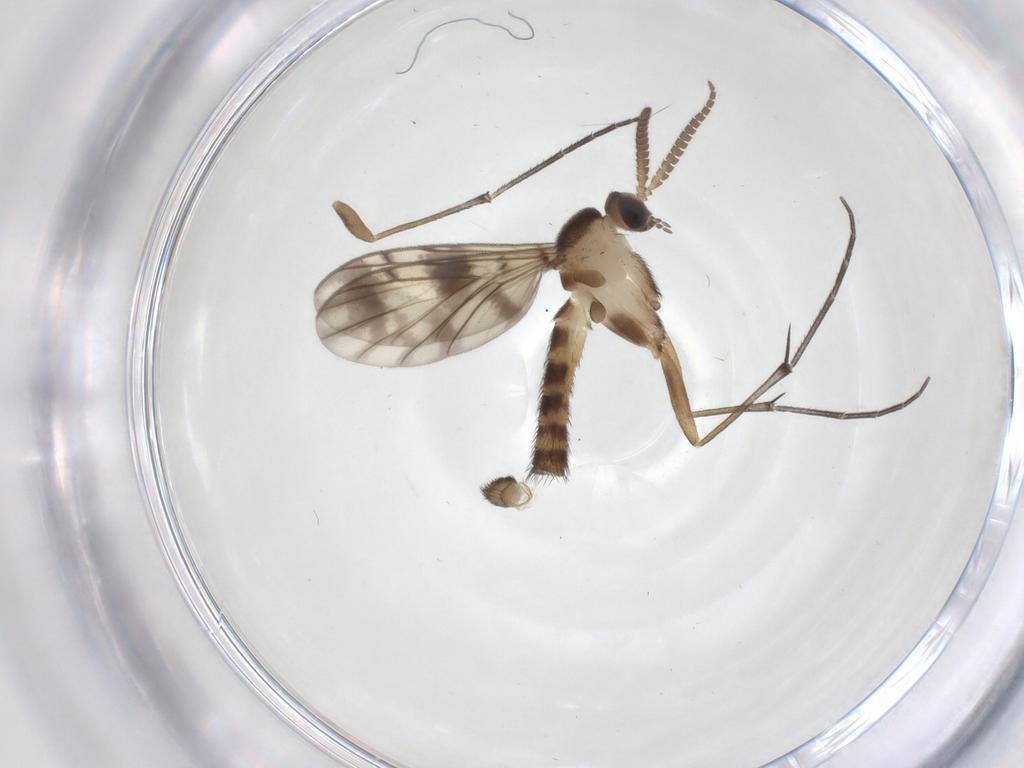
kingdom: Animalia
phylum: Arthropoda
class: Insecta
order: Diptera
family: Keroplatidae
